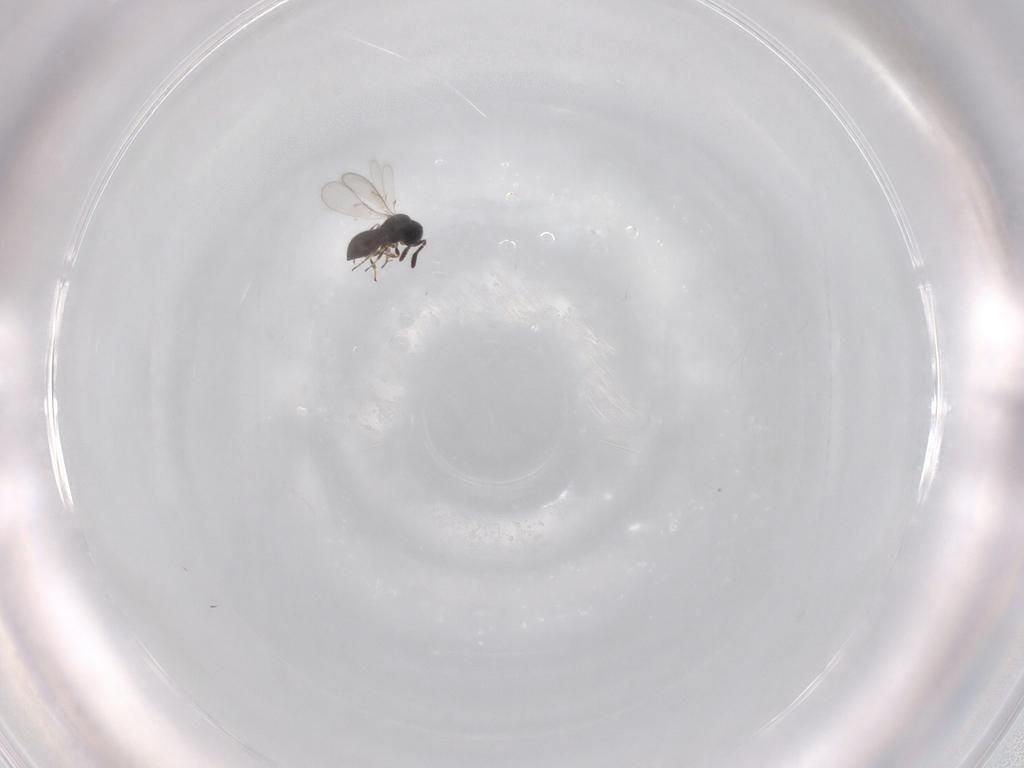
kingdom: Animalia
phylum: Arthropoda
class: Insecta
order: Hymenoptera
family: Scelionidae
